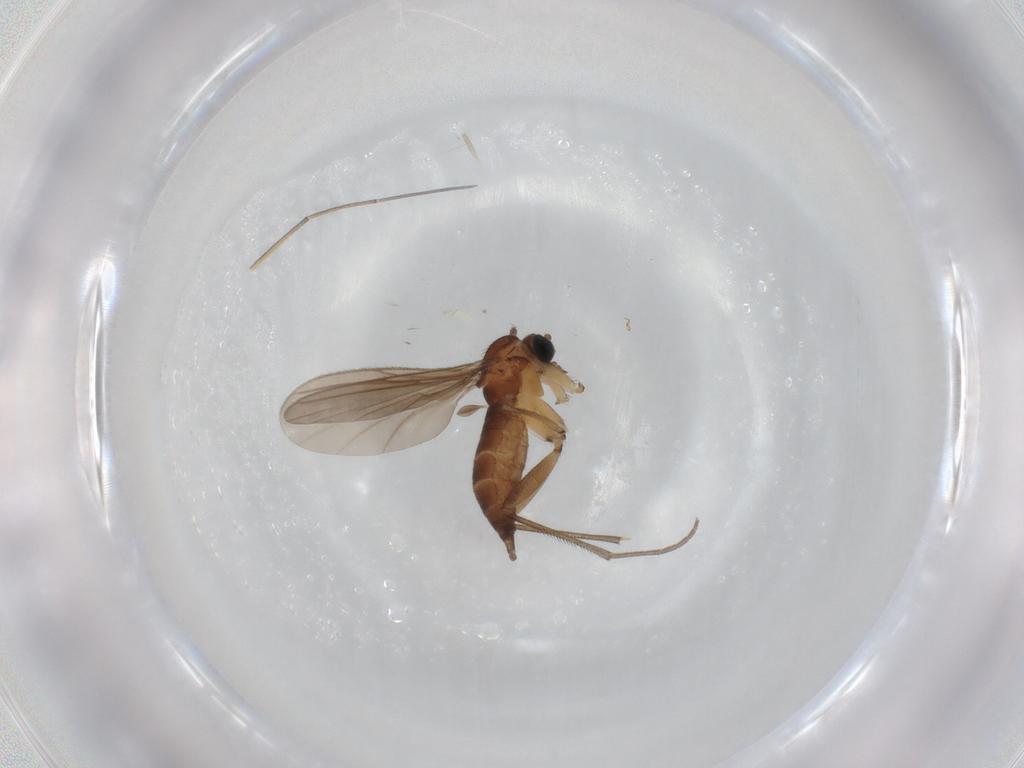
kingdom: Animalia
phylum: Arthropoda
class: Insecta
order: Diptera
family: Sciaridae
